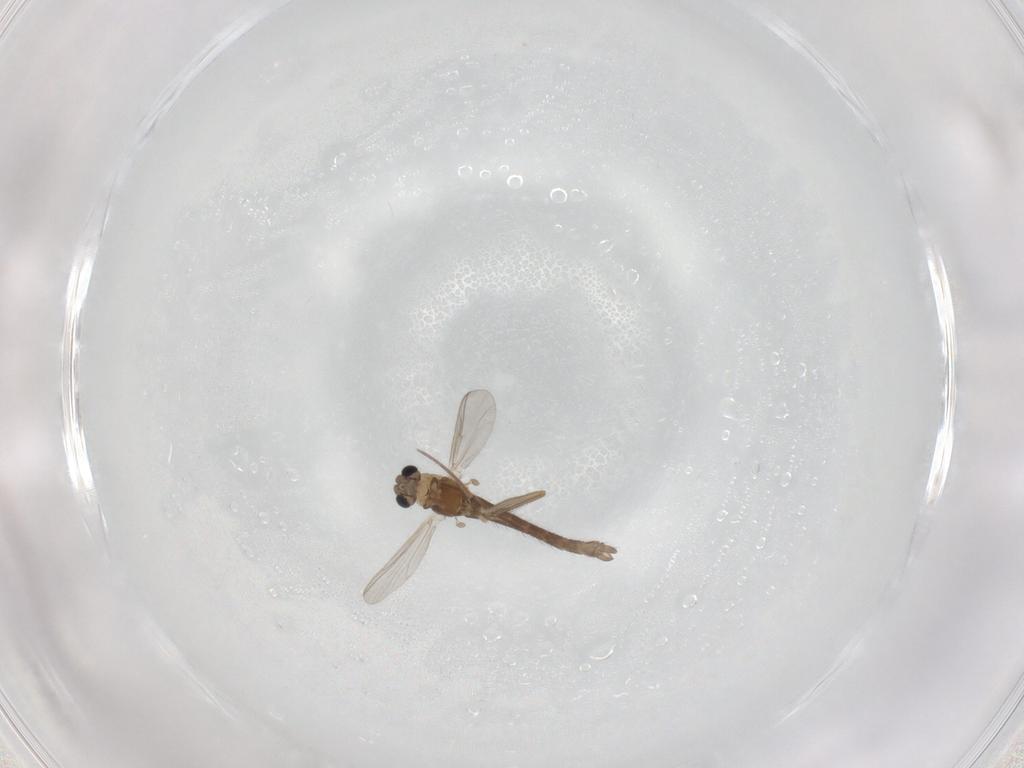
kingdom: Animalia
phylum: Arthropoda
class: Insecta
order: Diptera
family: Chironomidae
